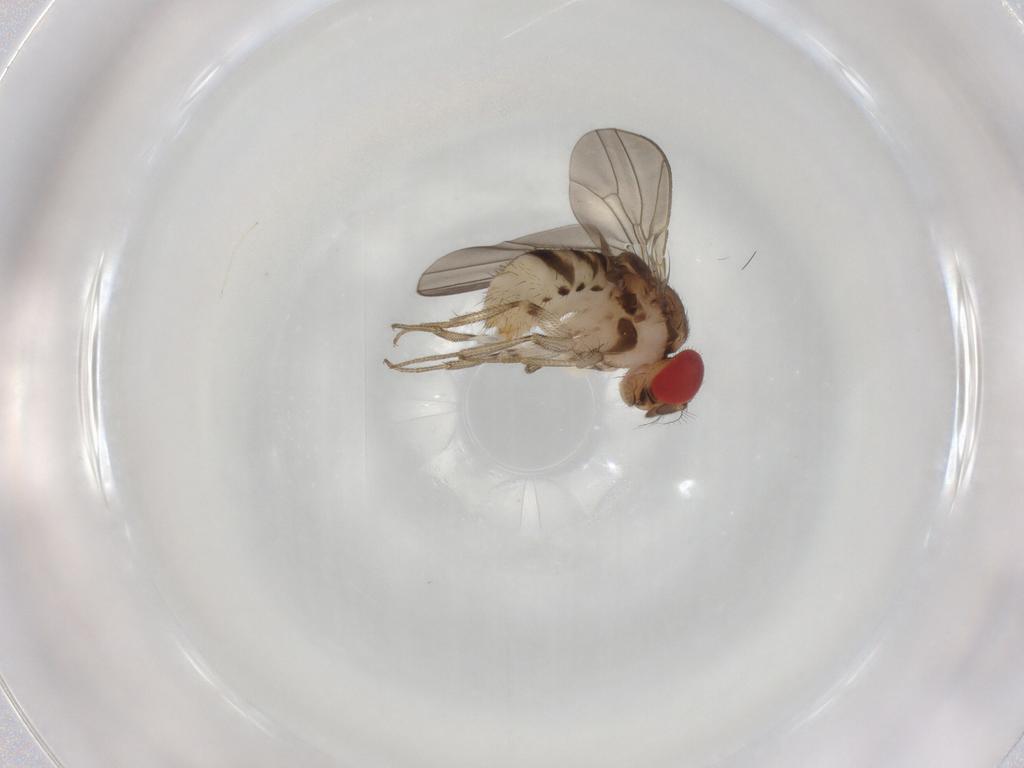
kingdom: Animalia
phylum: Arthropoda
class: Insecta
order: Diptera
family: Drosophilidae
